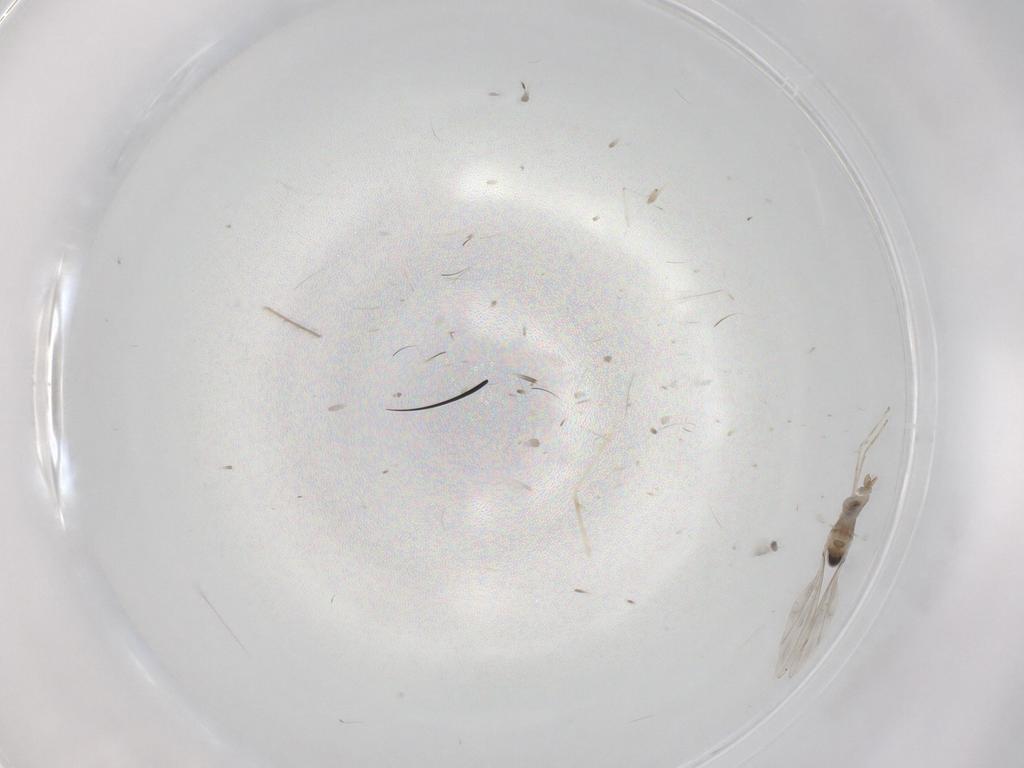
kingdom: Animalia
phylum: Arthropoda
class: Insecta
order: Diptera
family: Cecidomyiidae
